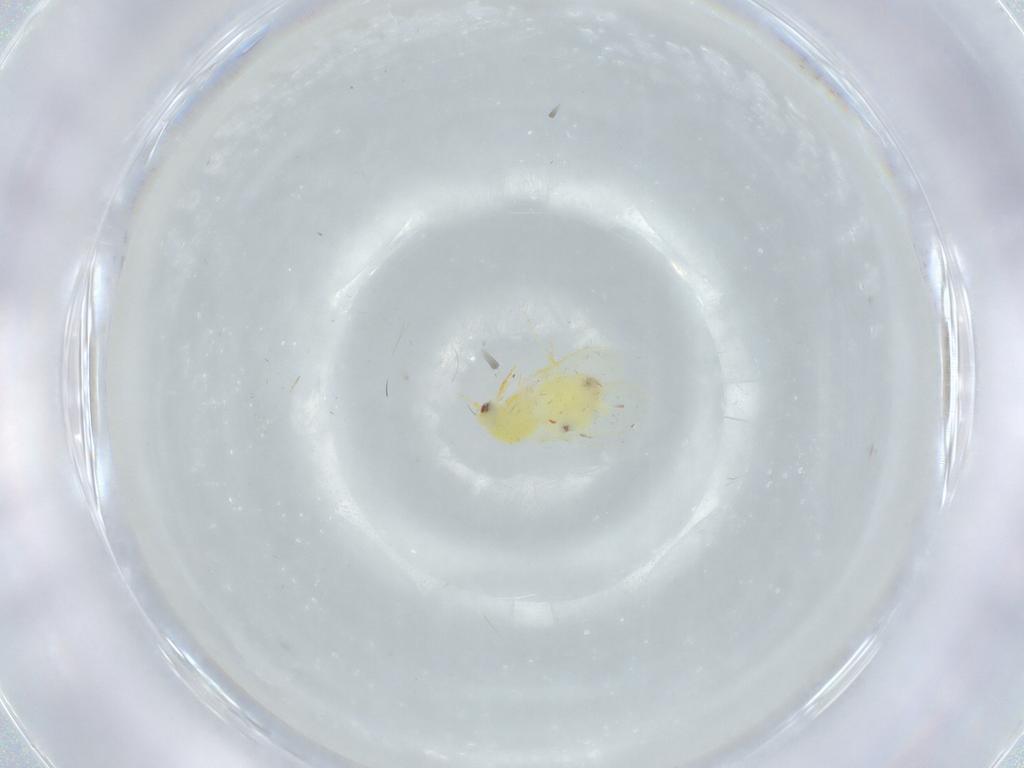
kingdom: Animalia
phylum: Arthropoda
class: Insecta
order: Hemiptera
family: Aleyrodidae
